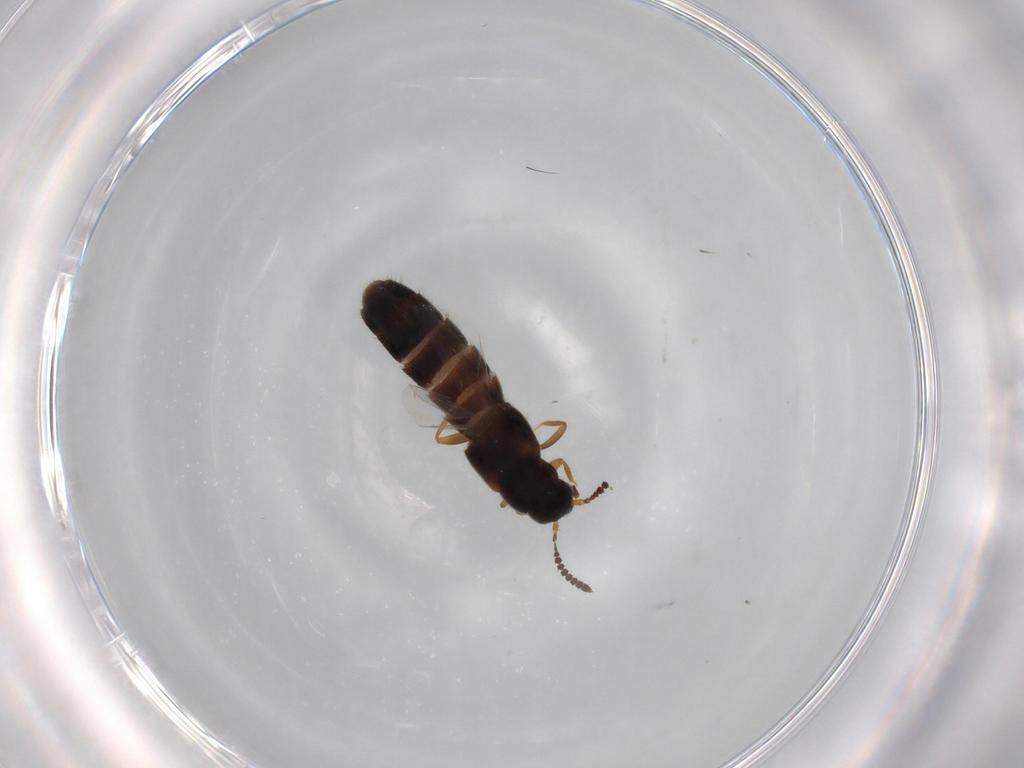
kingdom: Animalia
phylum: Arthropoda
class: Insecta
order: Coleoptera
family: Staphylinidae
